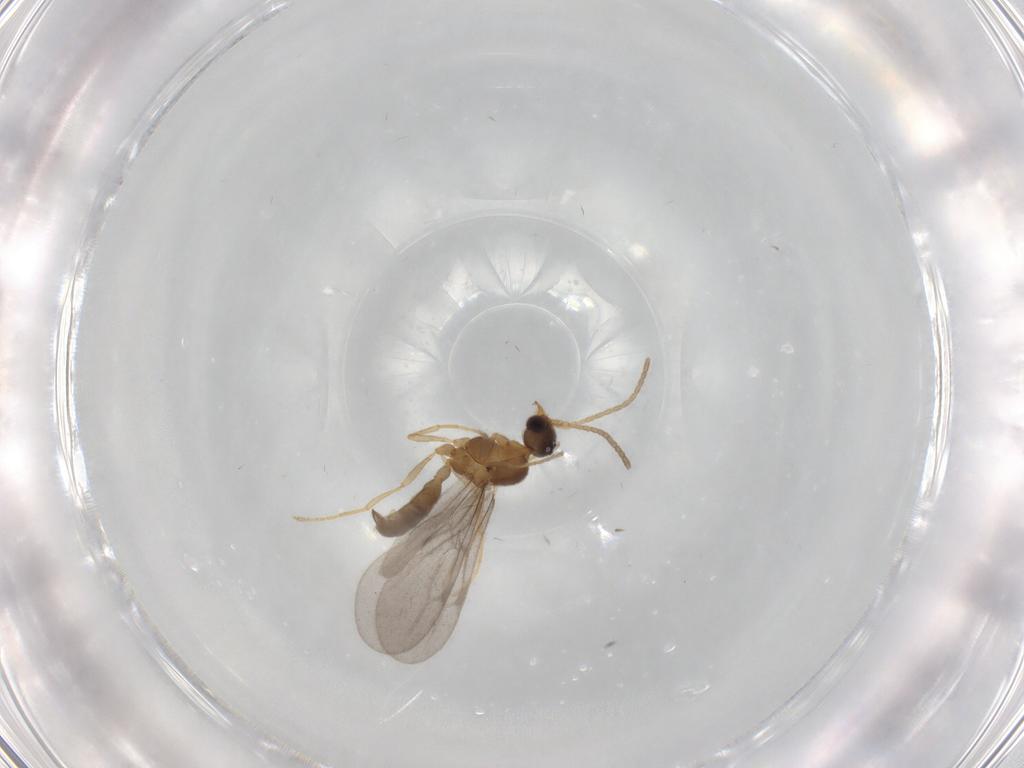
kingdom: Animalia
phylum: Arthropoda
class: Insecta
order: Hymenoptera
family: Formicidae
